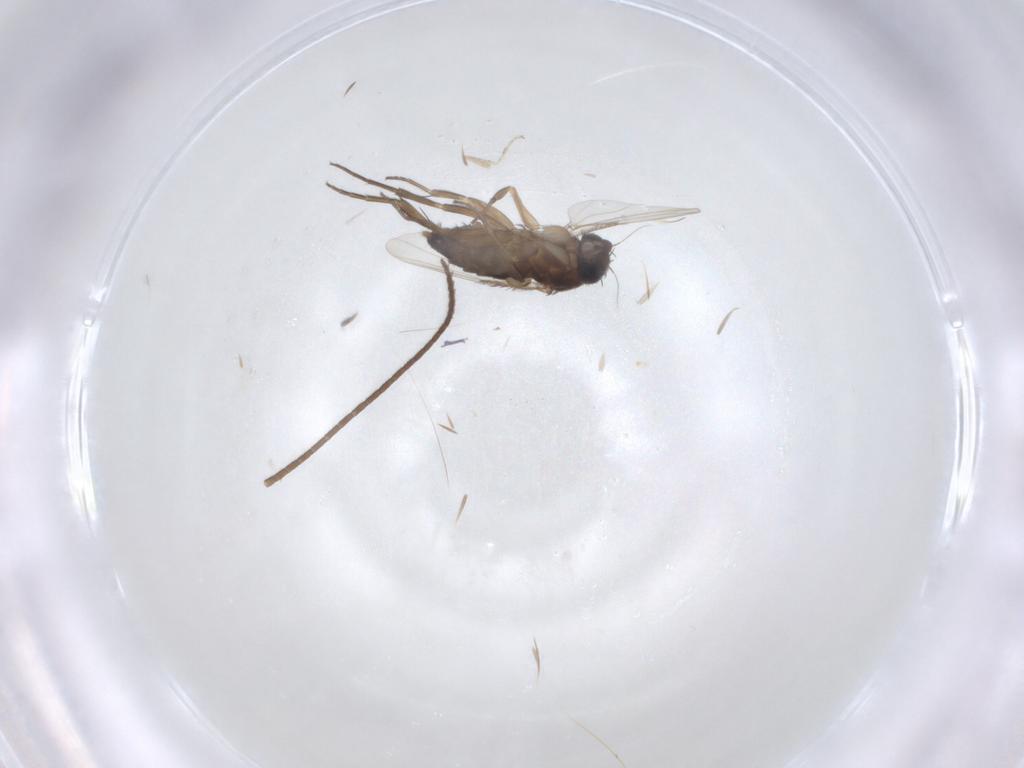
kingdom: Animalia
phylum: Arthropoda
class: Insecta
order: Diptera
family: Phoridae
